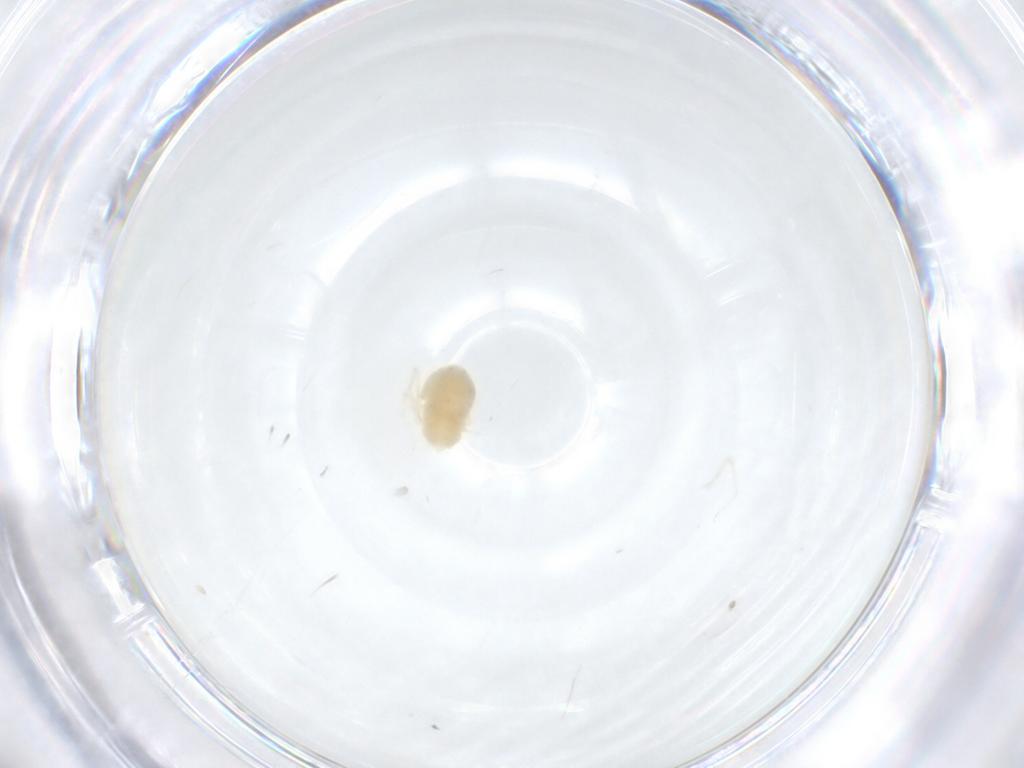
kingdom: Animalia
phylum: Arthropoda
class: Arachnida
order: Trombidiformes
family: Anystidae
